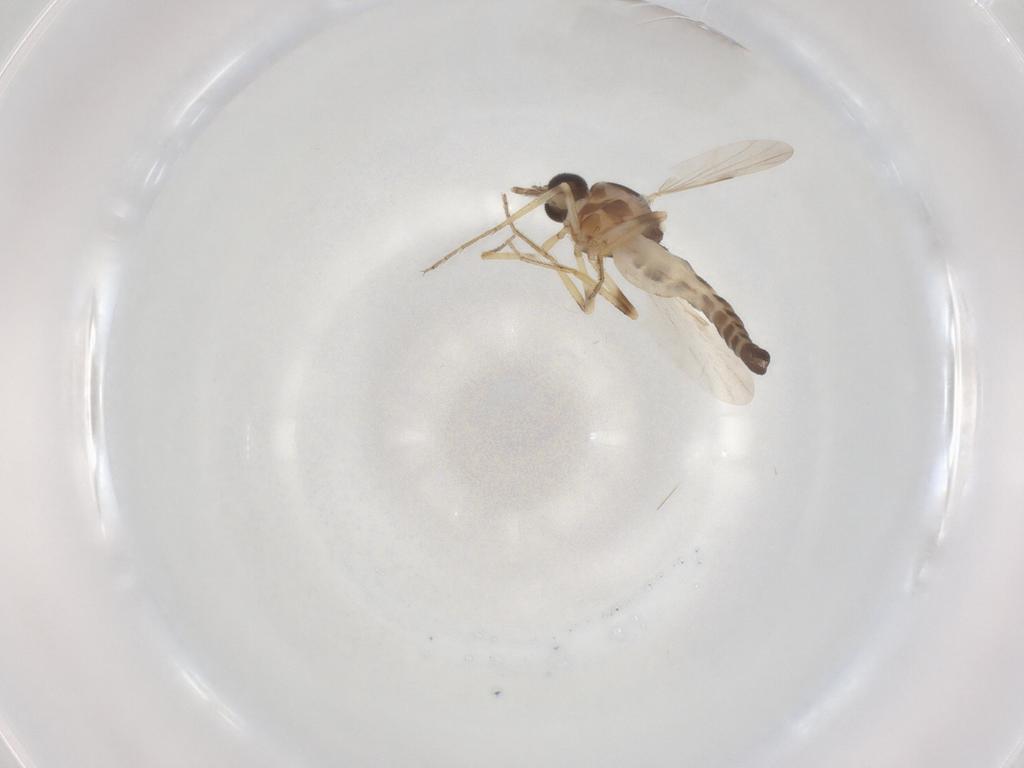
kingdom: Animalia
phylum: Arthropoda
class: Insecta
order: Diptera
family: Ceratopogonidae
